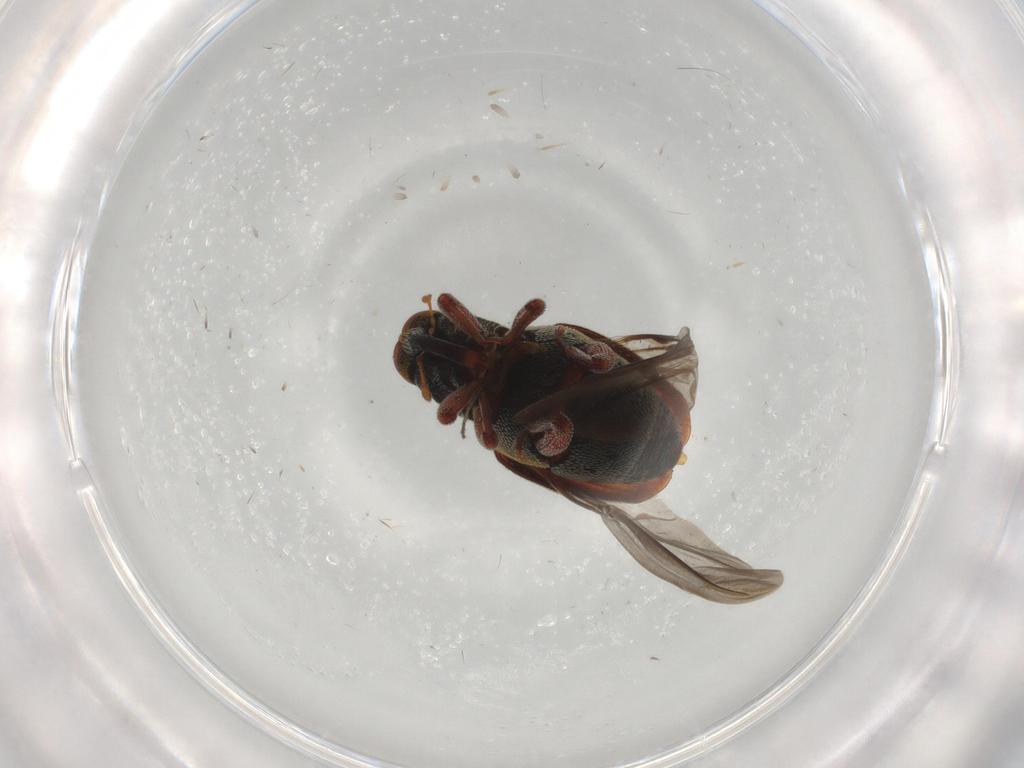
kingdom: Animalia
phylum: Arthropoda
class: Insecta
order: Coleoptera
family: Curculionidae
